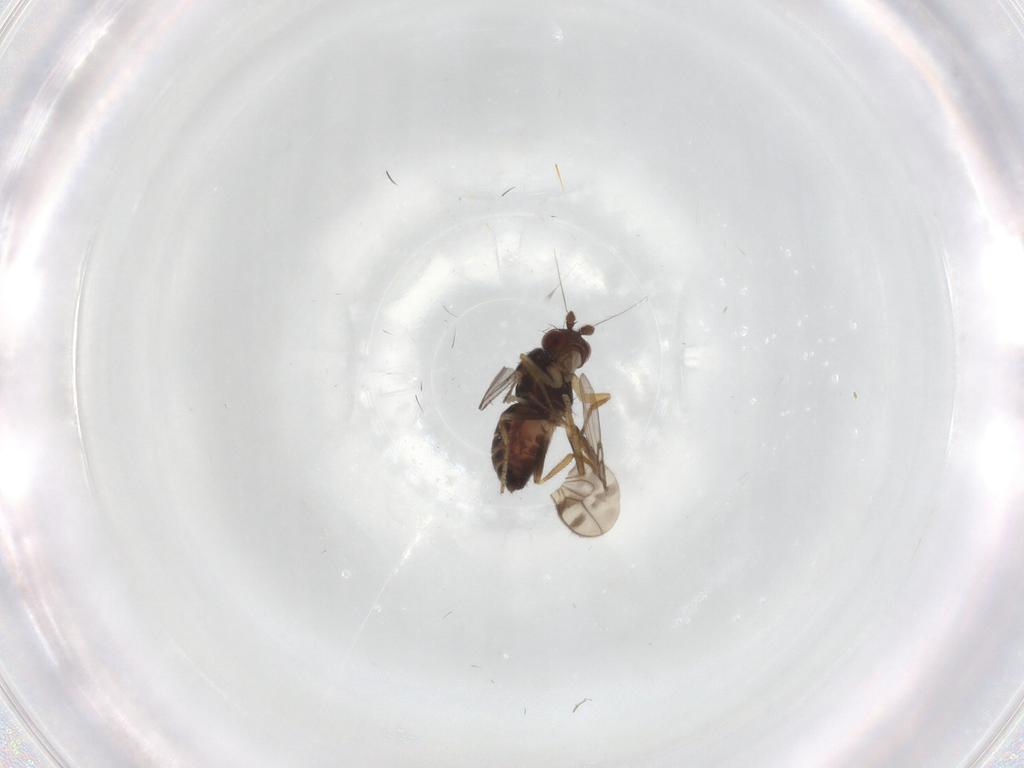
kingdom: Animalia
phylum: Arthropoda
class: Insecta
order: Diptera
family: Sphaeroceridae
